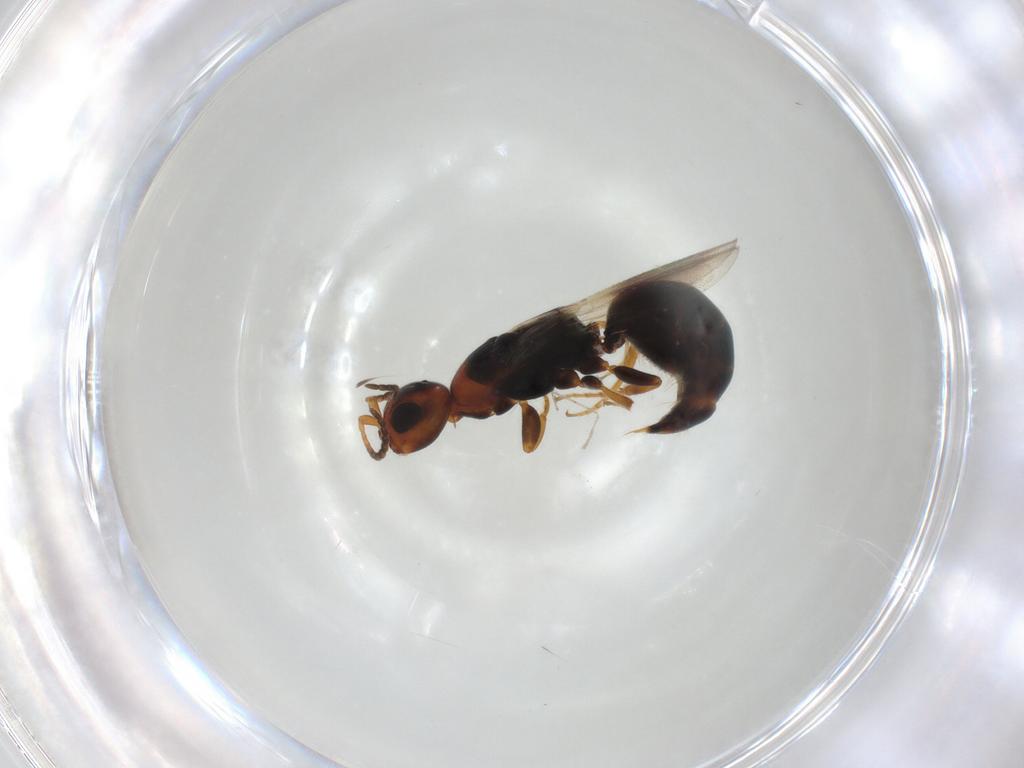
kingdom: Animalia
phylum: Arthropoda
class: Insecta
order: Hymenoptera
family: Bethylidae
